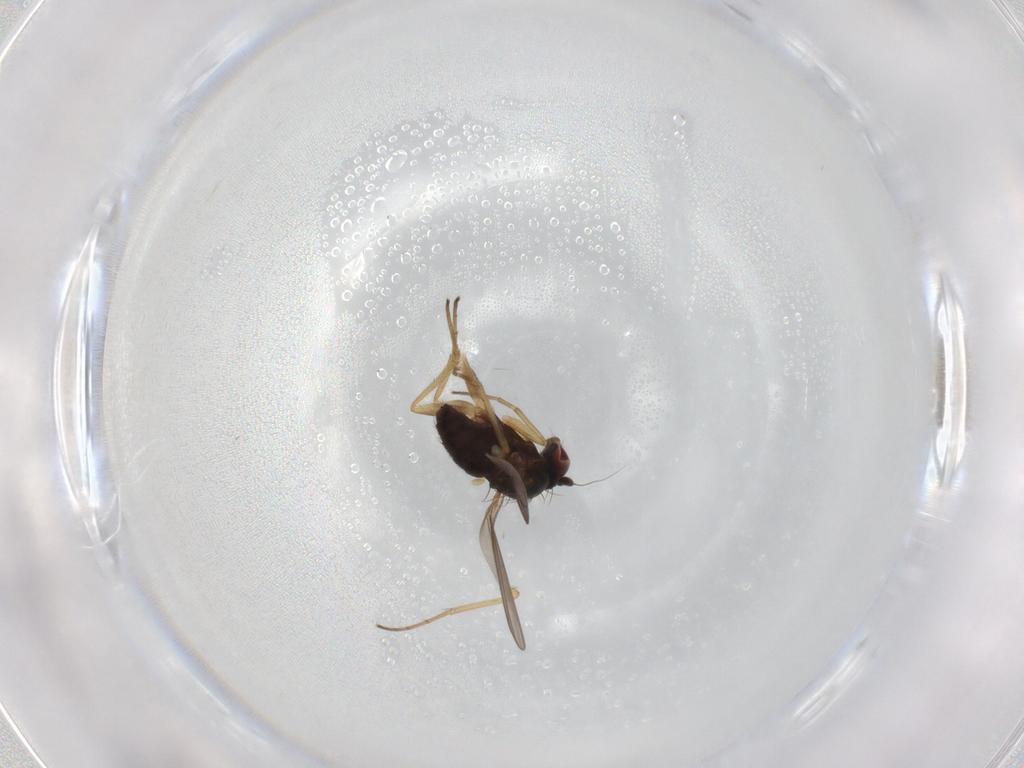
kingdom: Animalia
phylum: Arthropoda
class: Insecta
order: Diptera
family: Dolichopodidae
